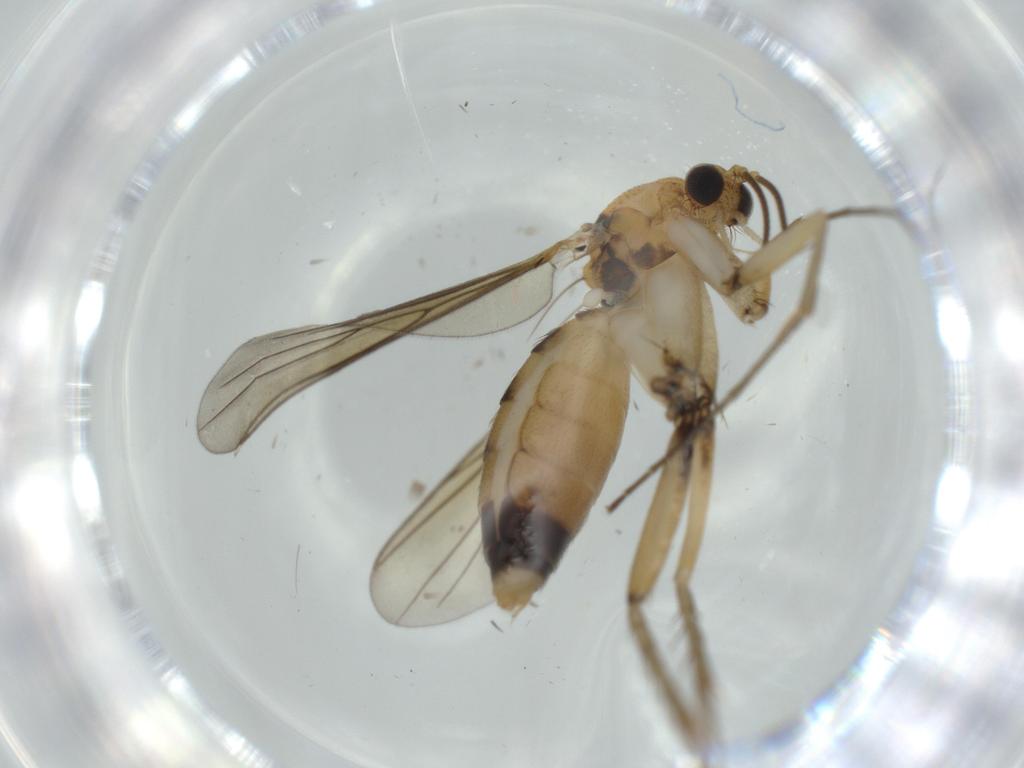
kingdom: Animalia
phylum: Arthropoda
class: Insecta
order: Diptera
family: Mycetophilidae
